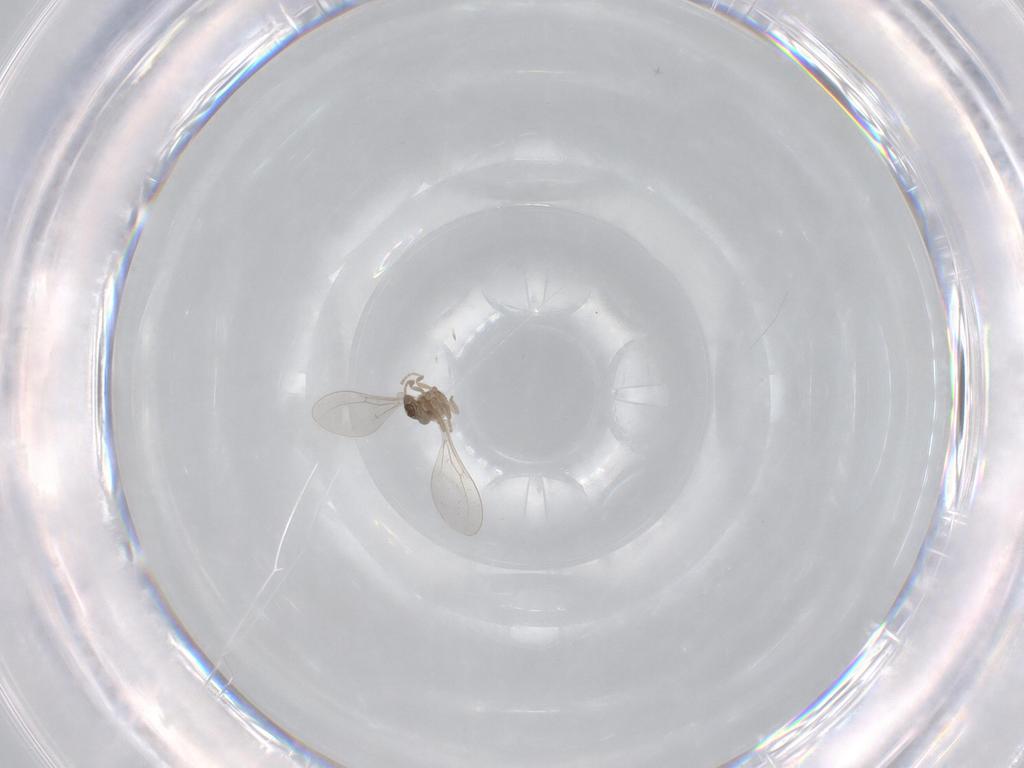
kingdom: Animalia
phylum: Arthropoda
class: Insecta
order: Diptera
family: Cecidomyiidae
